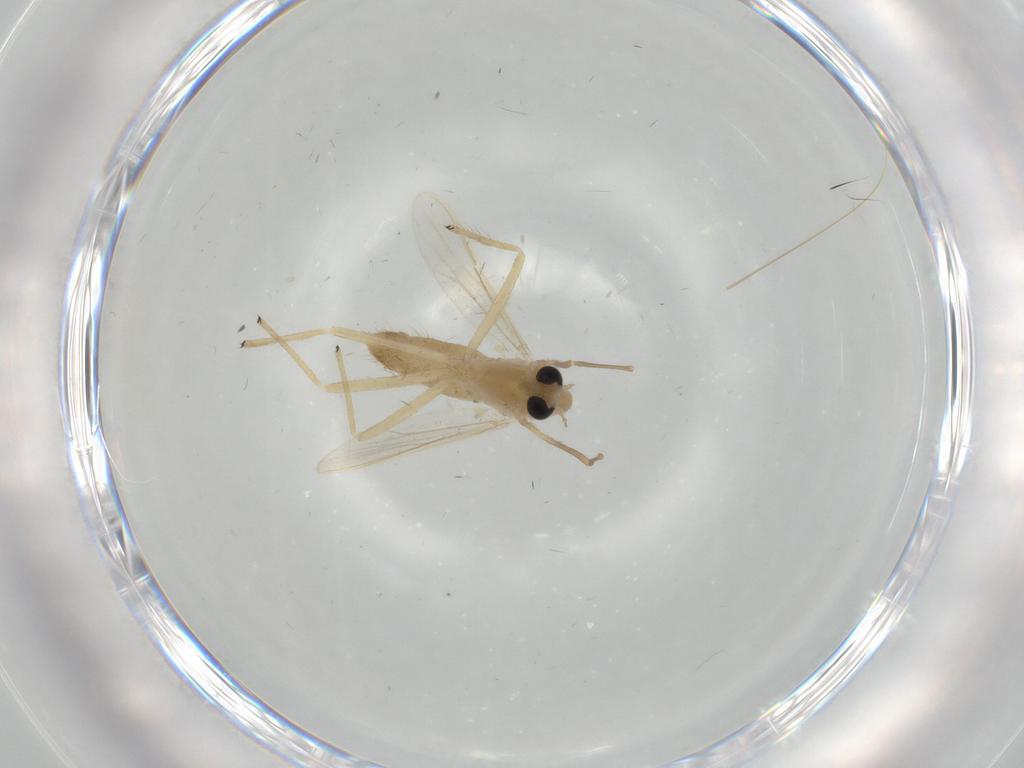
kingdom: Animalia
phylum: Arthropoda
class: Insecta
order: Diptera
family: Chironomidae
